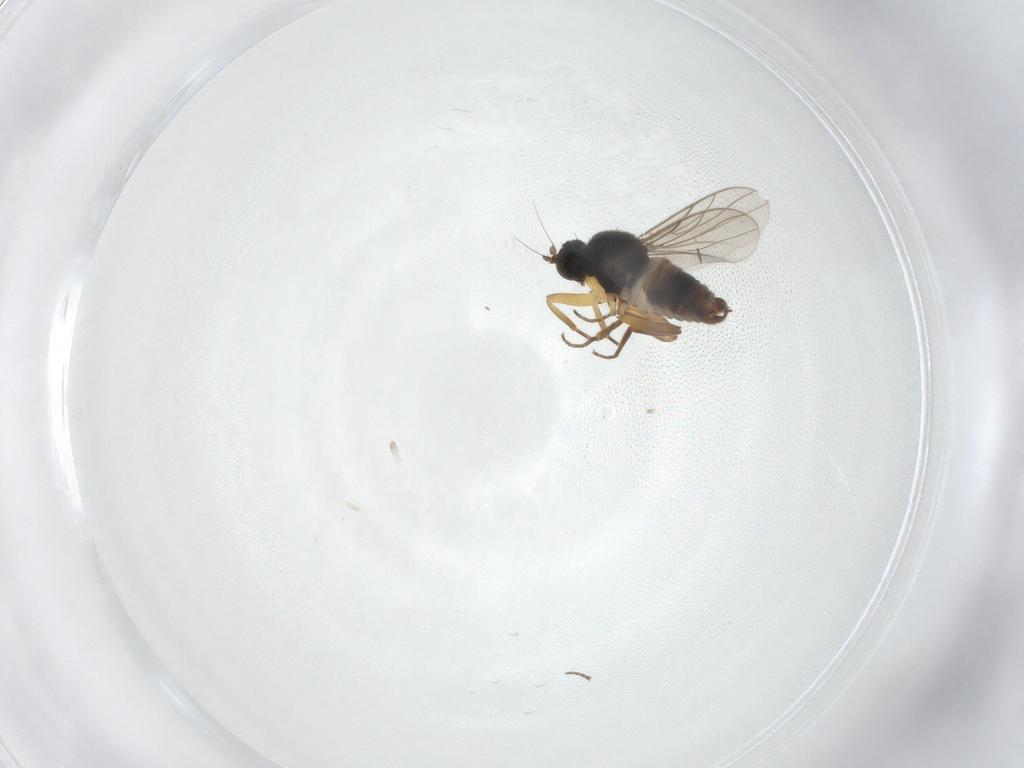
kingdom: Animalia
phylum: Arthropoda
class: Insecta
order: Diptera
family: Hybotidae
